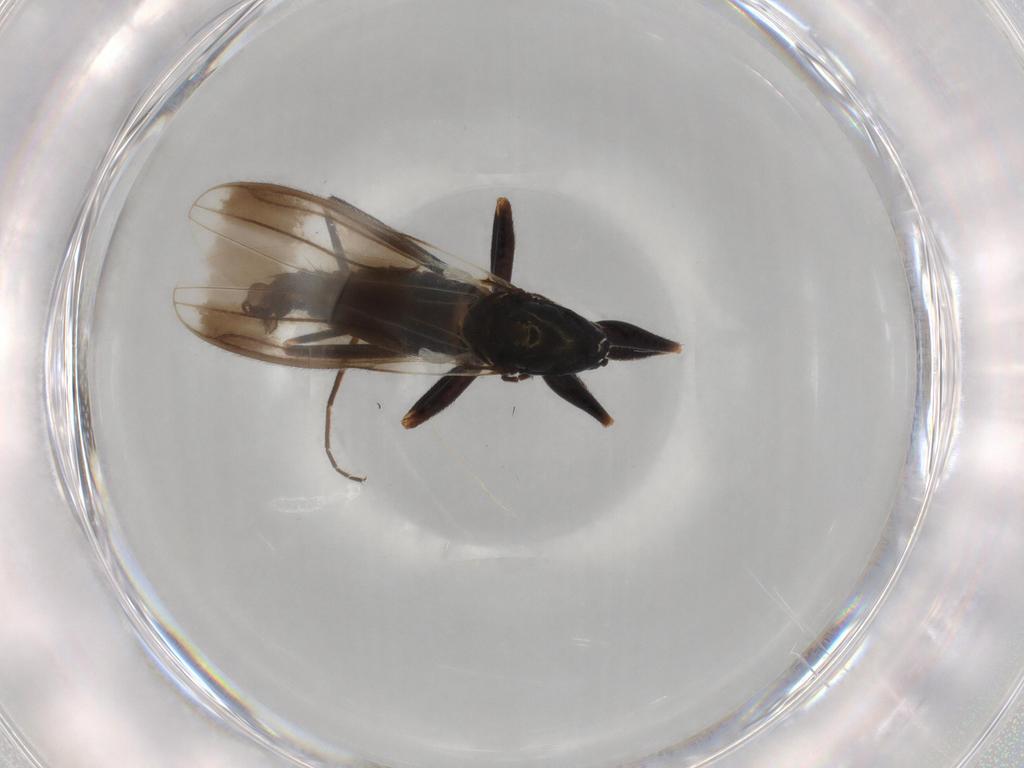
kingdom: Animalia
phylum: Arthropoda
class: Insecta
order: Diptera
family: Hybotidae
